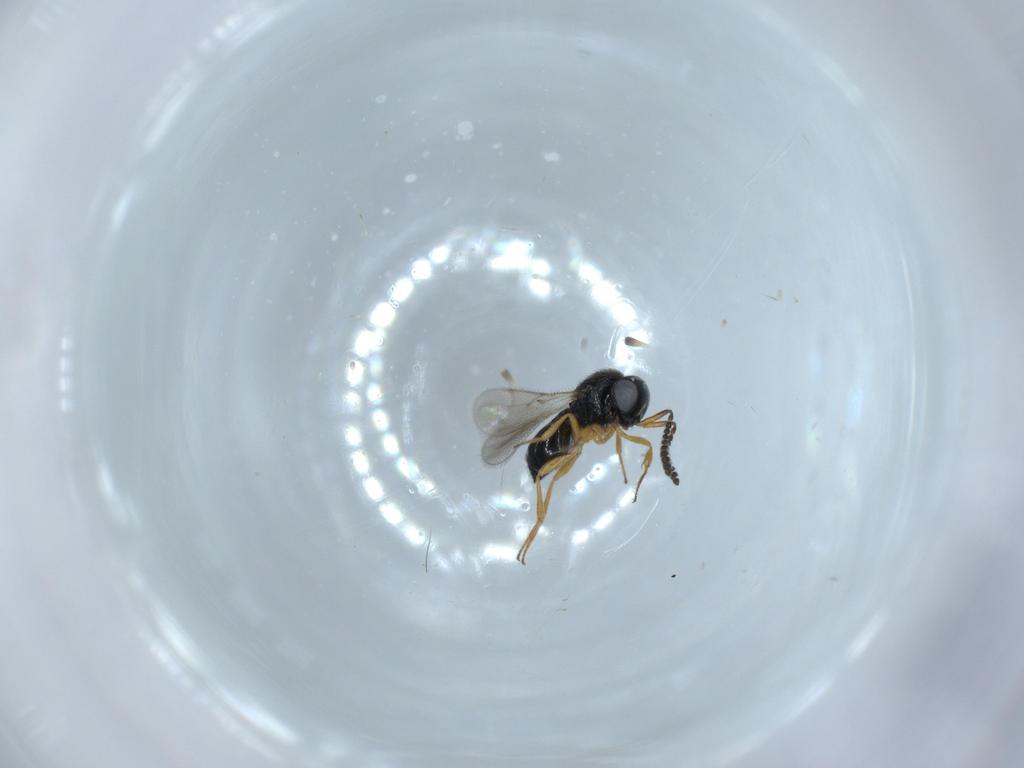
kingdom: Animalia
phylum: Arthropoda
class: Insecta
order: Hymenoptera
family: Scelionidae
